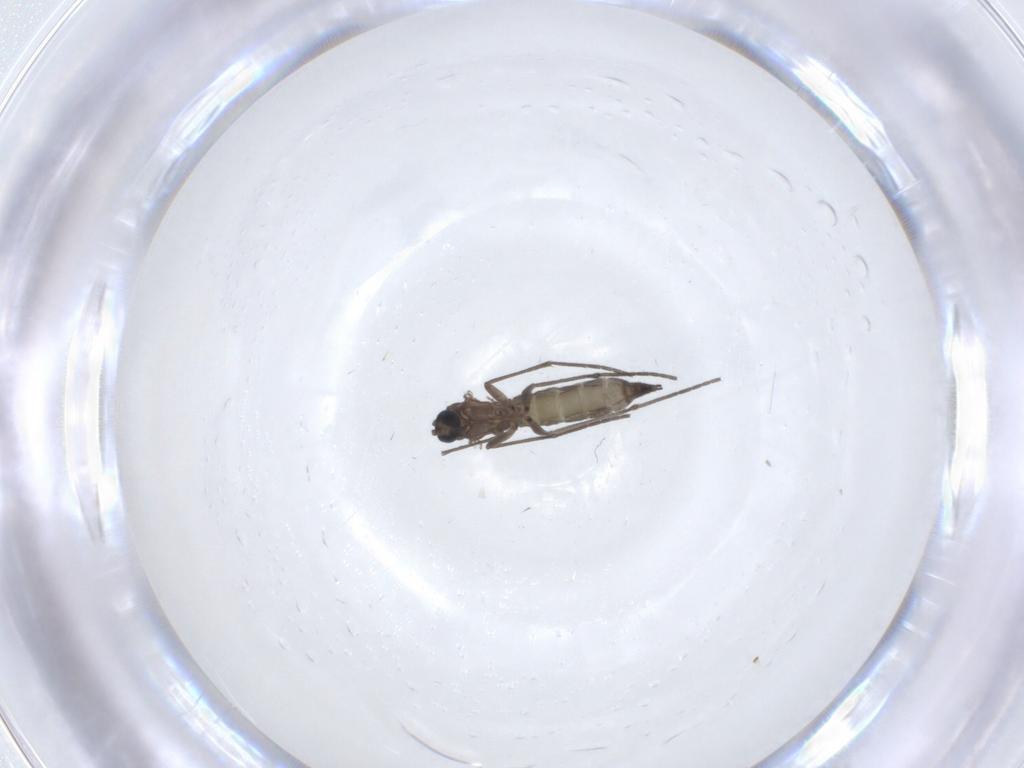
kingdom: Animalia
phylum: Arthropoda
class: Insecta
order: Diptera
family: Sciaridae
